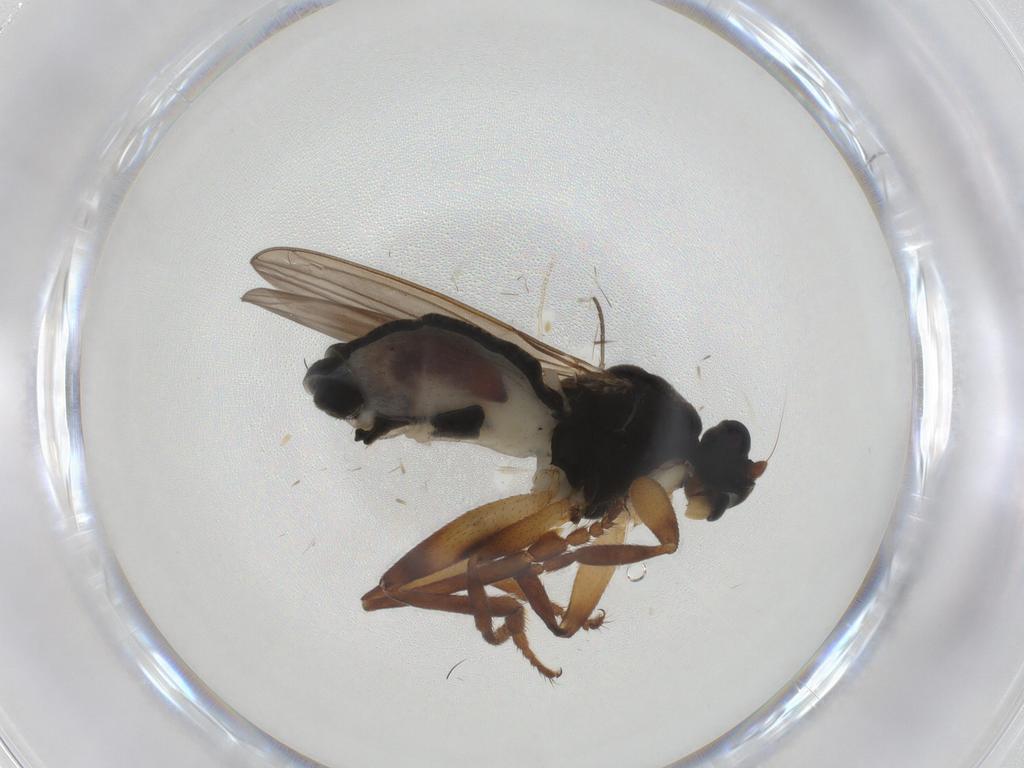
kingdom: Animalia
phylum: Arthropoda
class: Insecta
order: Diptera
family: Sphaeroceridae
